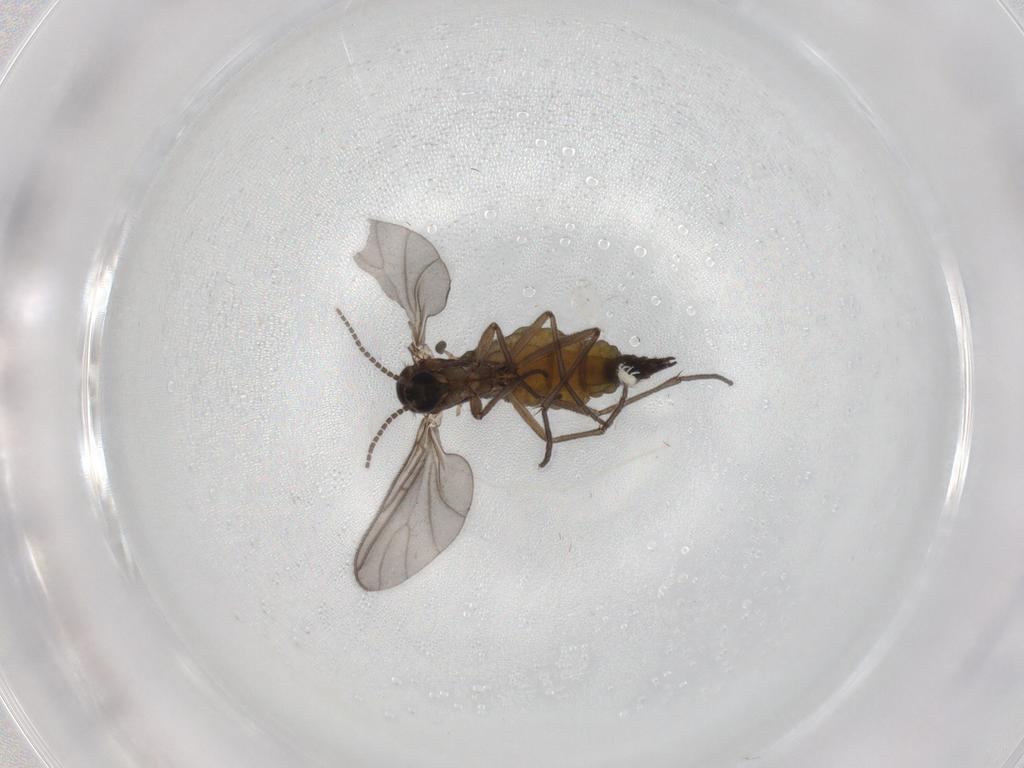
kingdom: Animalia
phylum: Arthropoda
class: Insecta
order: Diptera
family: Sciaridae
